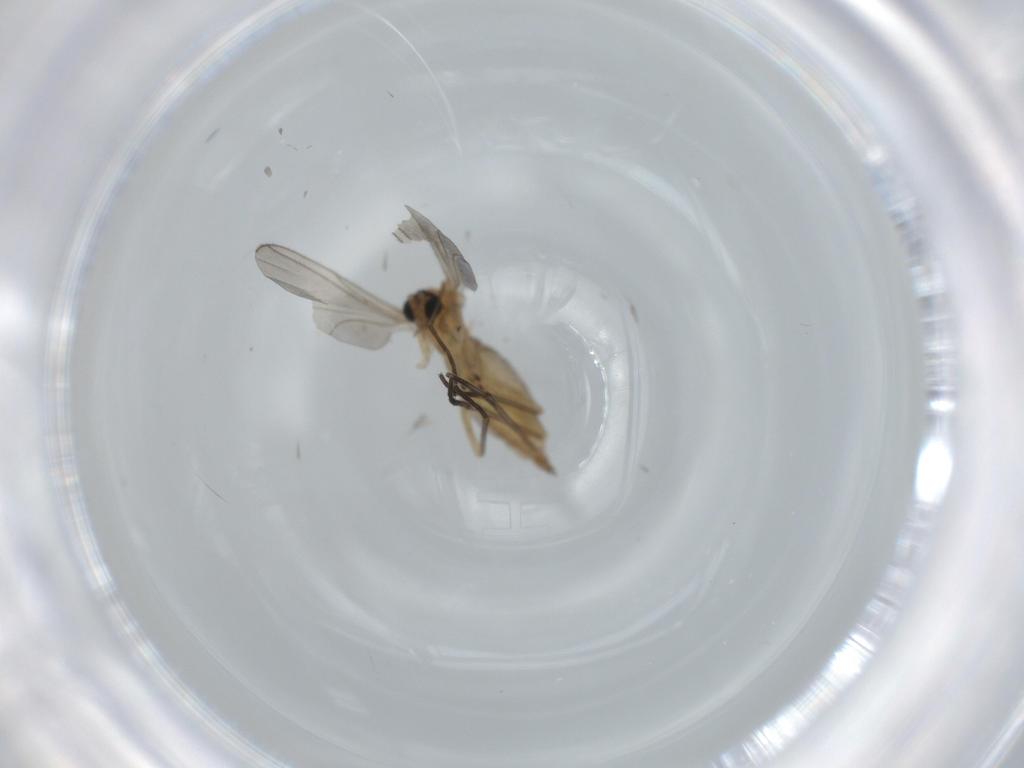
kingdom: Animalia
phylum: Arthropoda
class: Insecta
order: Diptera
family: Sciaridae
